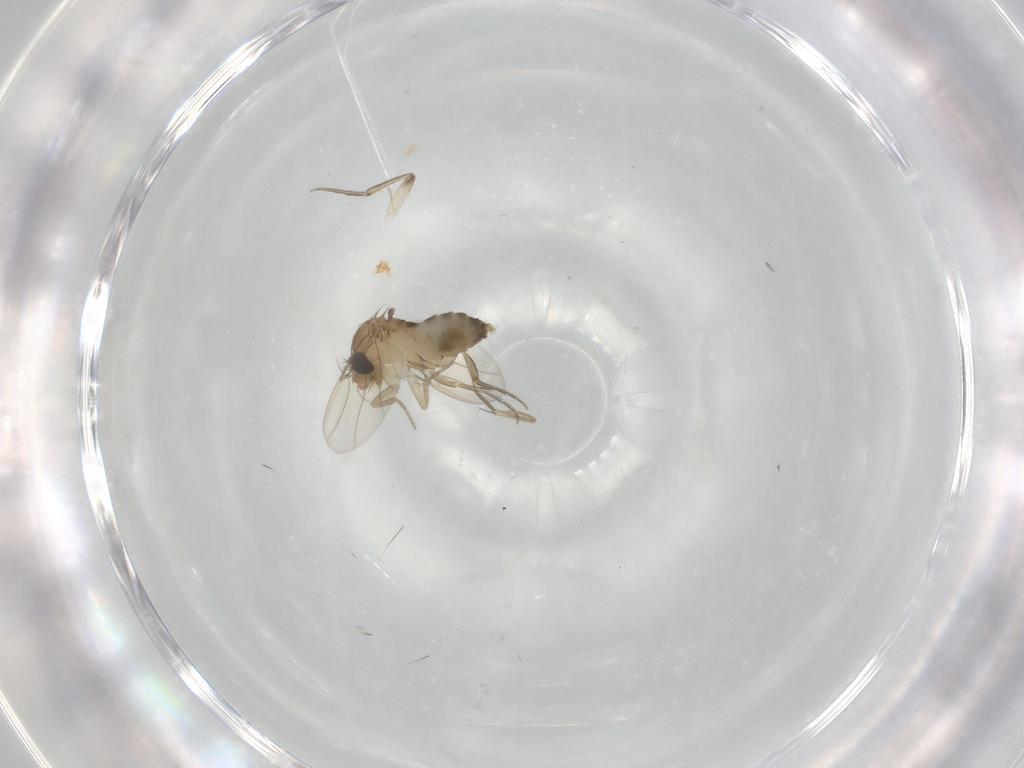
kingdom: Animalia
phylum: Arthropoda
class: Insecta
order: Diptera
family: Phoridae
